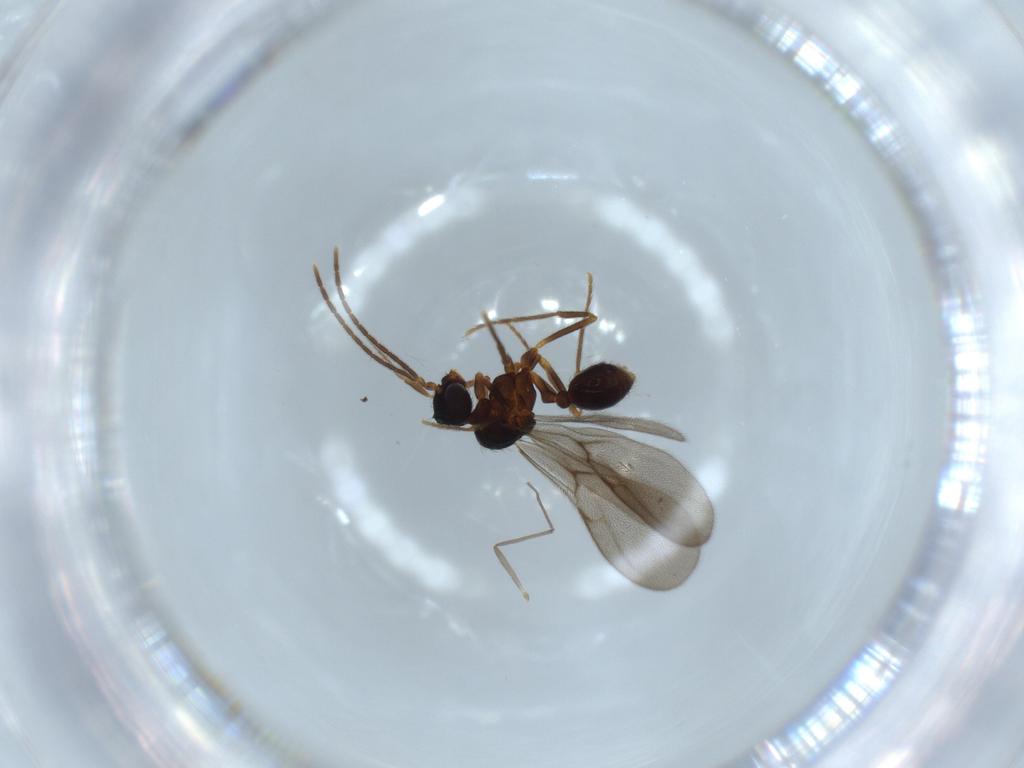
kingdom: Animalia
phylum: Arthropoda
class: Insecta
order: Hymenoptera
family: Formicidae
